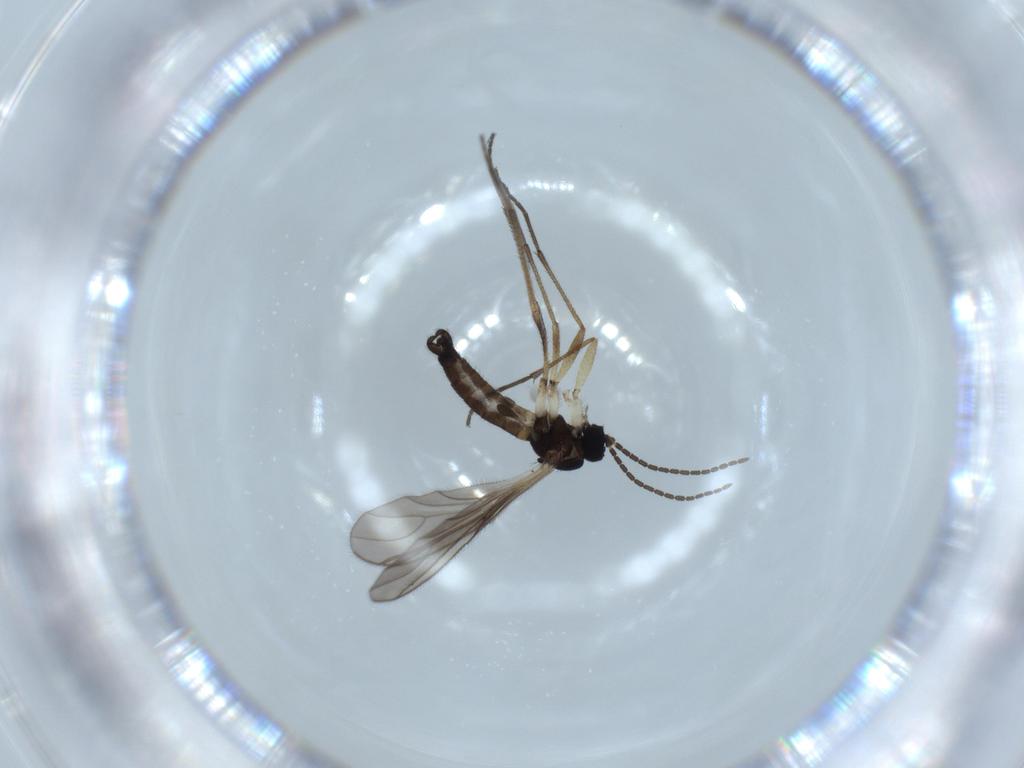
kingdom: Animalia
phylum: Arthropoda
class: Insecta
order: Diptera
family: Sciaridae
